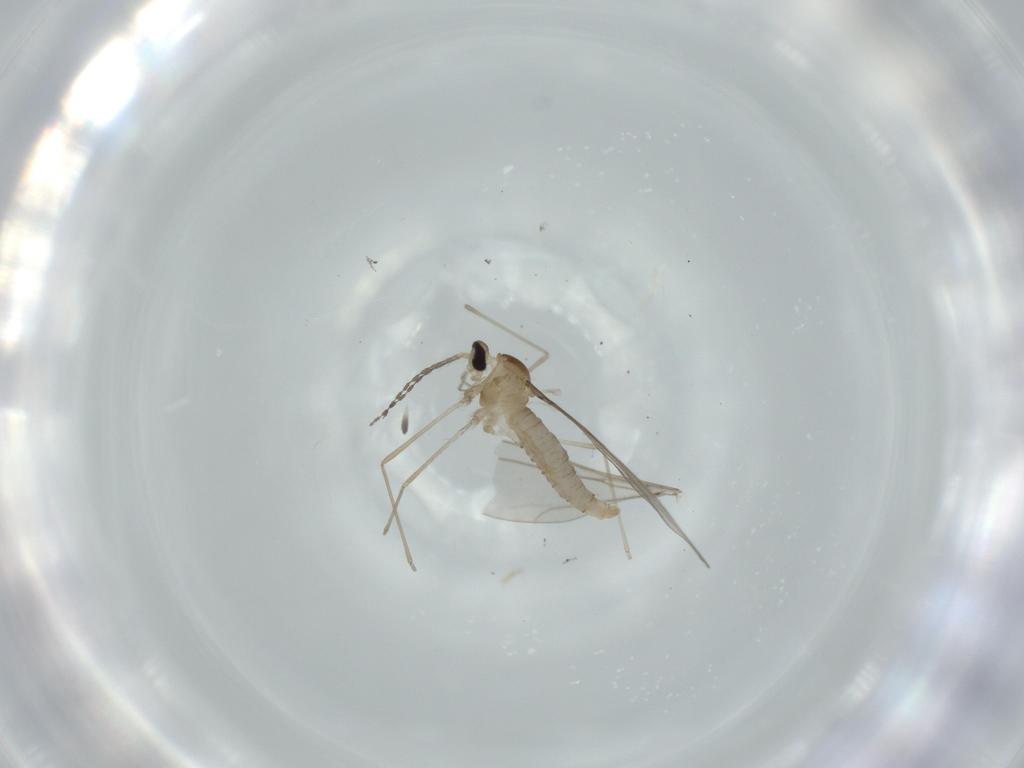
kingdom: Animalia
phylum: Arthropoda
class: Insecta
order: Diptera
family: Cecidomyiidae
